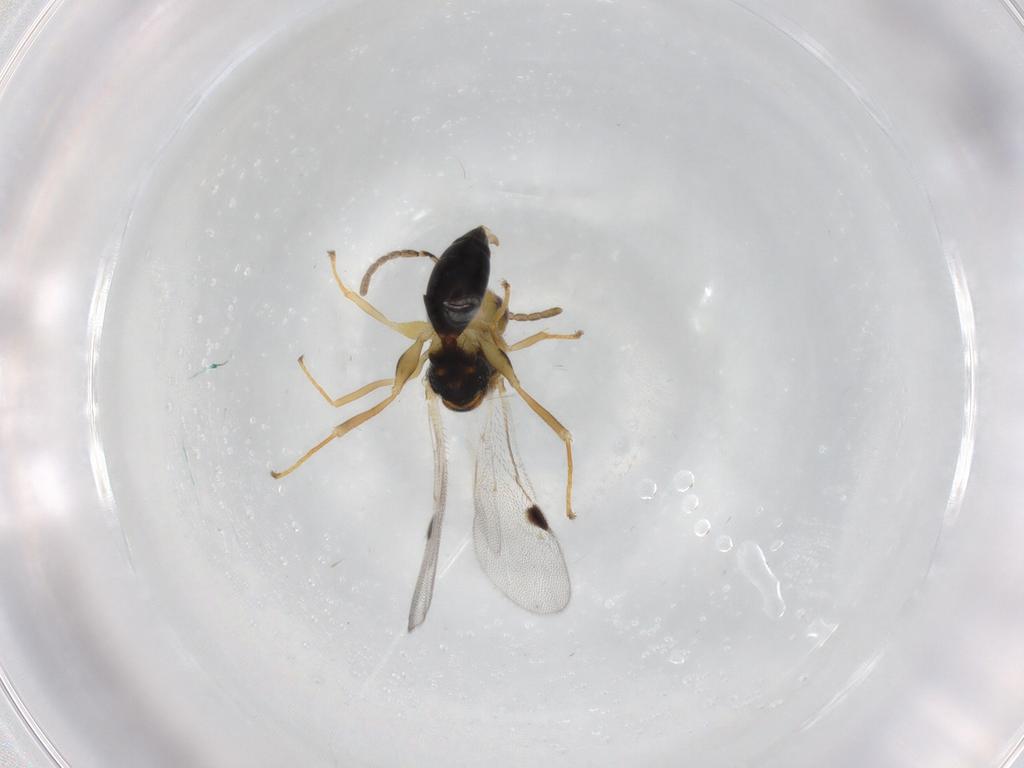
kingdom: Animalia
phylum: Arthropoda
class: Insecta
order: Hymenoptera
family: Eurytomidae
